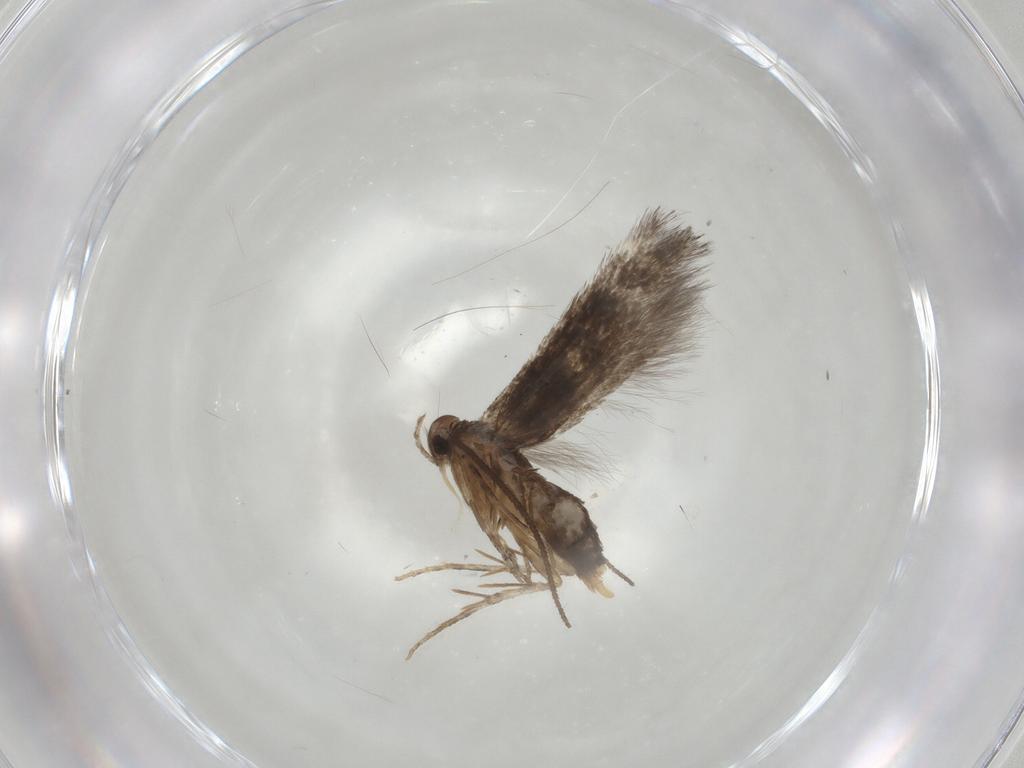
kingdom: Animalia
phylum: Arthropoda
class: Insecta
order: Lepidoptera
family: Elachistidae
